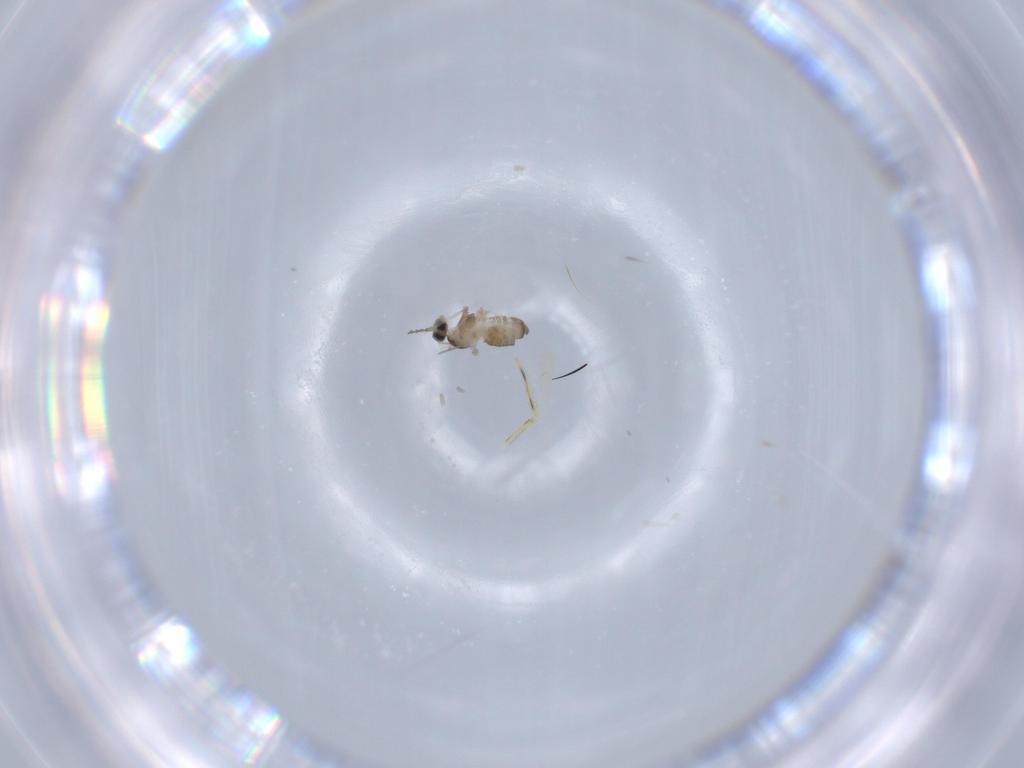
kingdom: Animalia
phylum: Arthropoda
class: Insecta
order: Diptera
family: Cecidomyiidae
